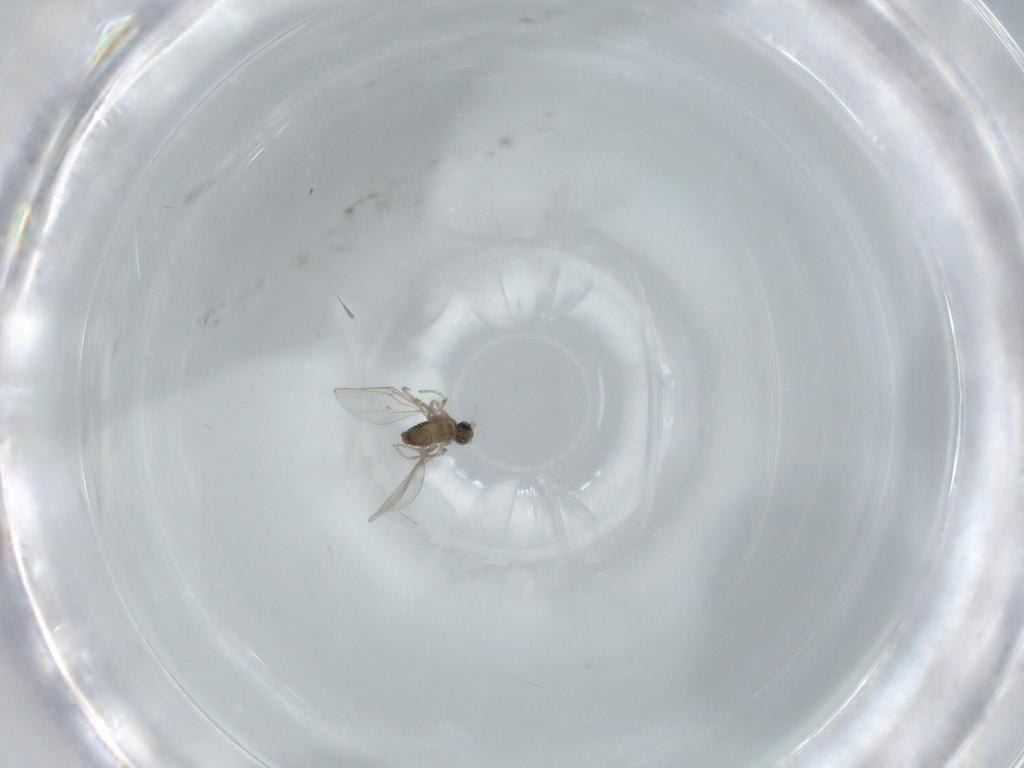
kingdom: Animalia
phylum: Arthropoda
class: Insecta
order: Diptera
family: Cecidomyiidae
